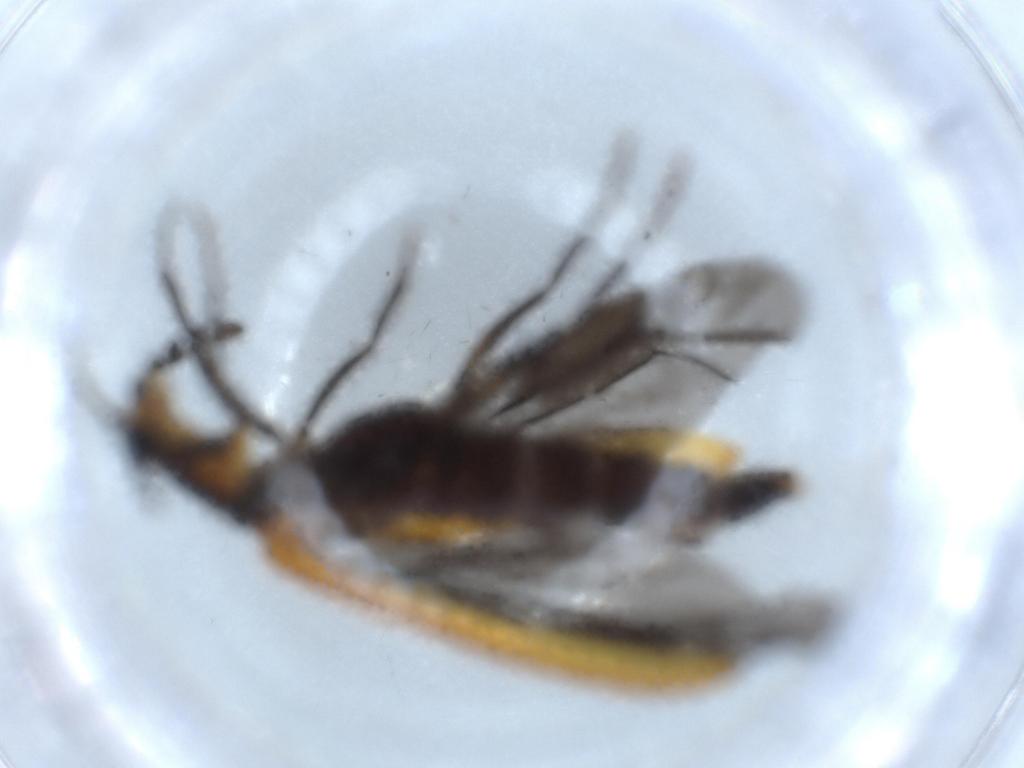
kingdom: Animalia
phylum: Arthropoda
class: Insecta
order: Coleoptera
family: Cleridae
